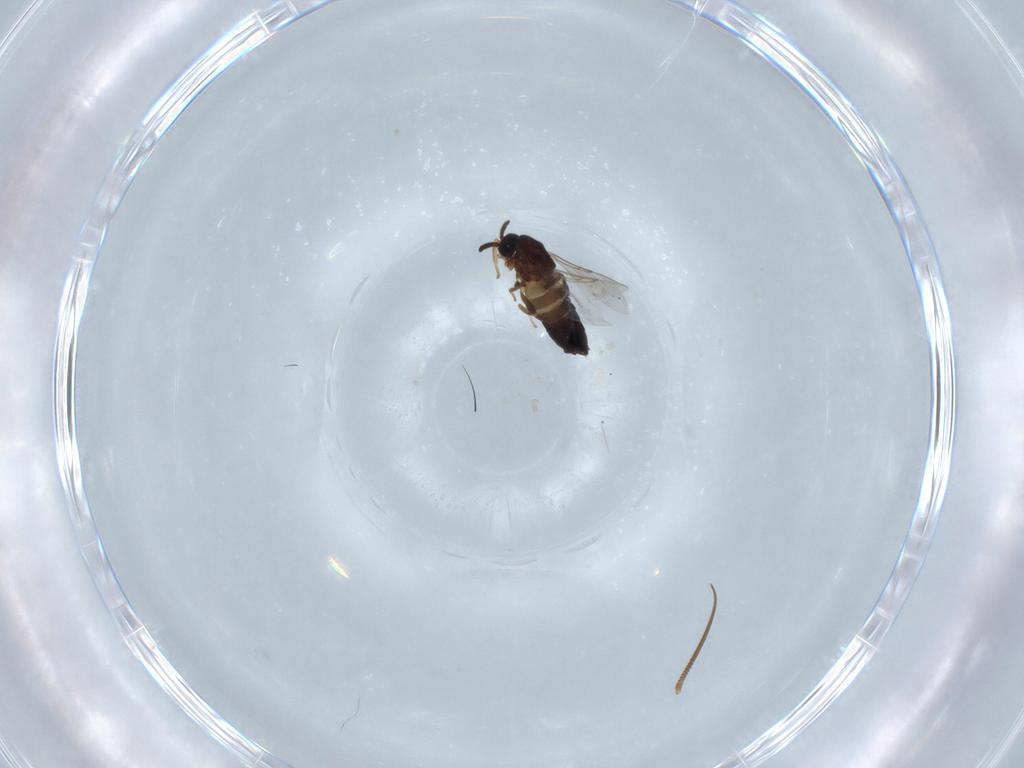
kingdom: Animalia
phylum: Arthropoda
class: Insecta
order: Diptera
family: Scatopsidae
